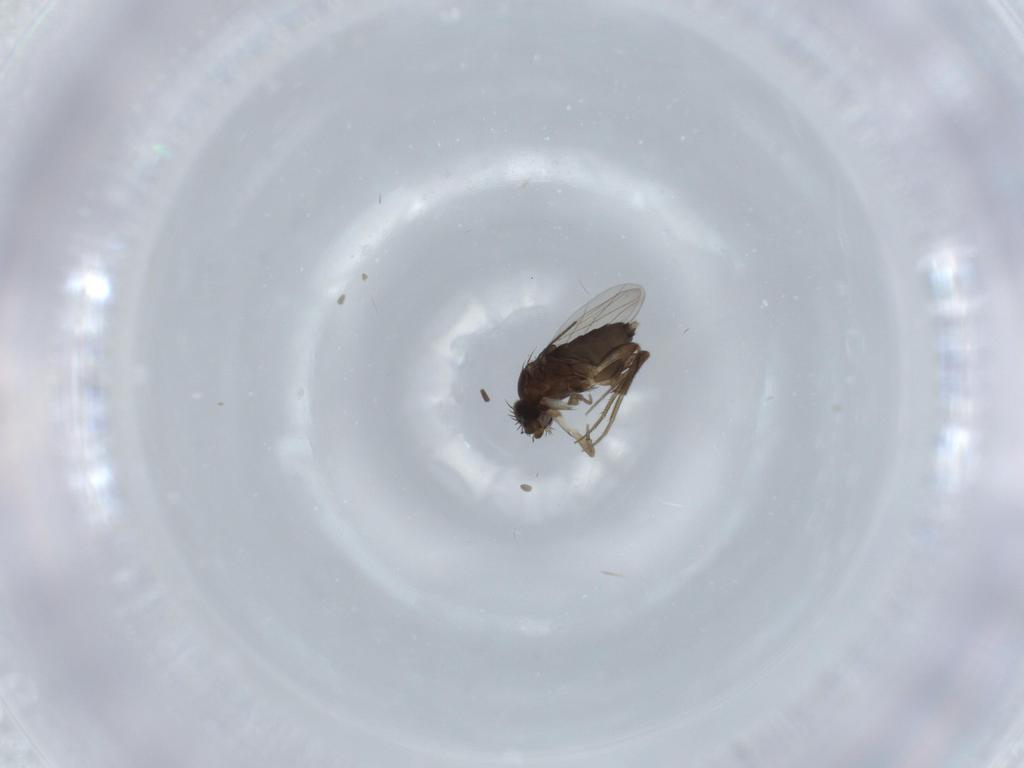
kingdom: Animalia
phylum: Arthropoda
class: Insecta
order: Diptera
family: Phoridae
